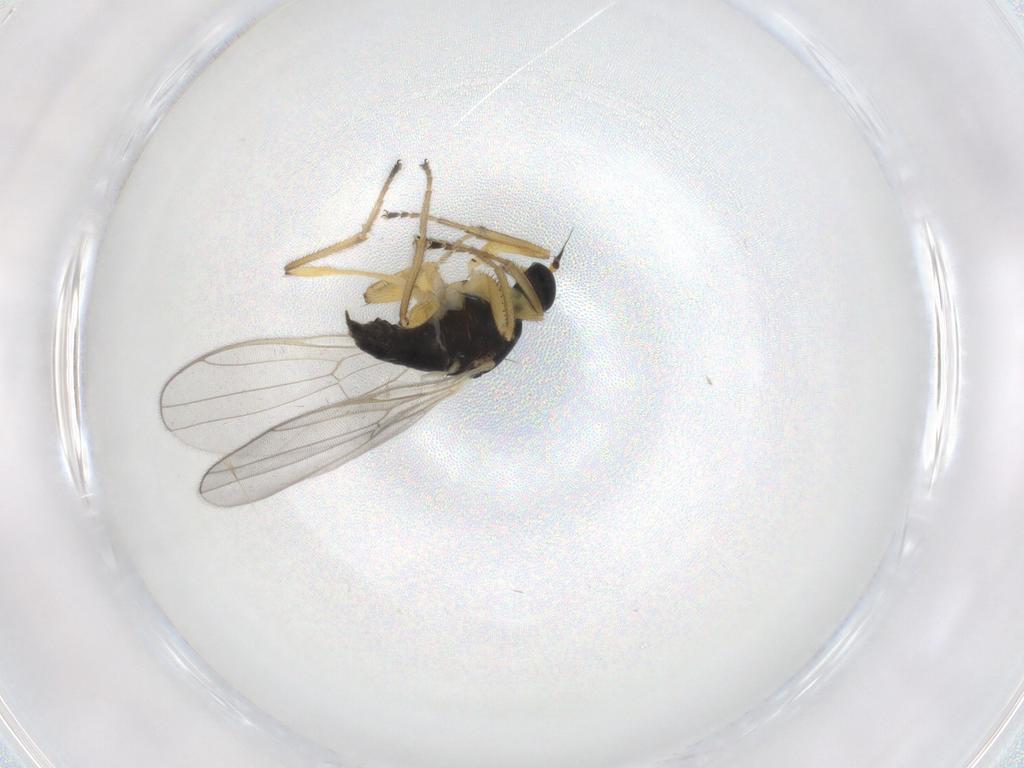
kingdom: Animalia
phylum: Arthropoda
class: Insecta
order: Diptera
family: Hybotidae
